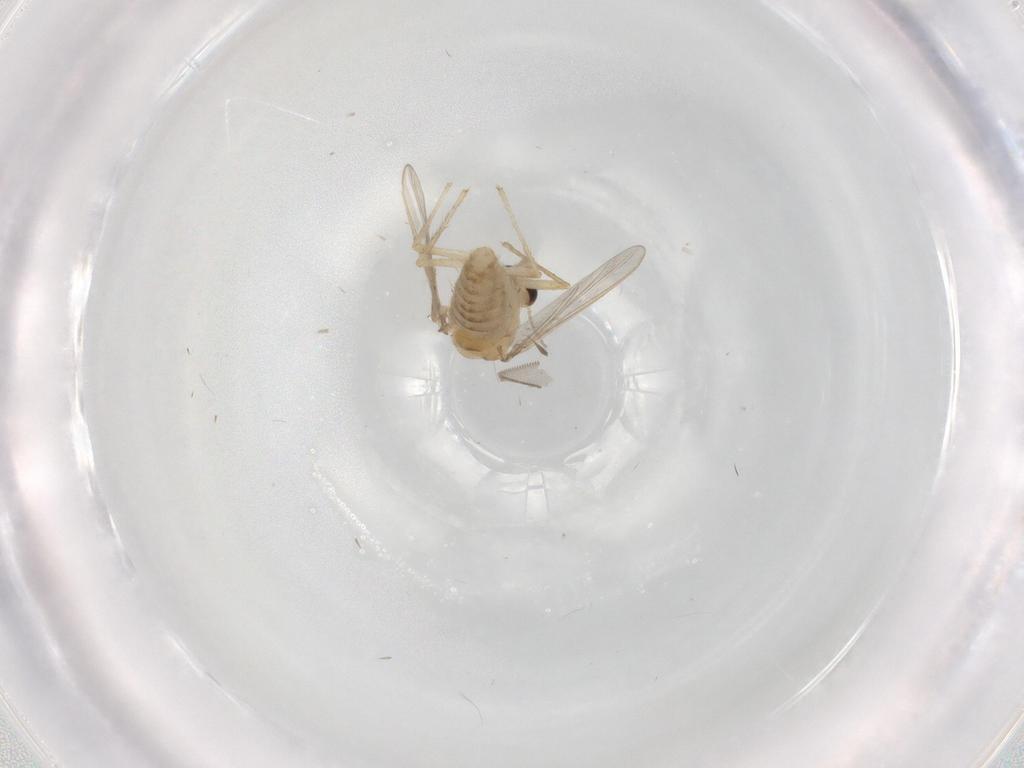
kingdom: Animalia
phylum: Arthropoda
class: Insecta
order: Diptera
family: Chironomidae
